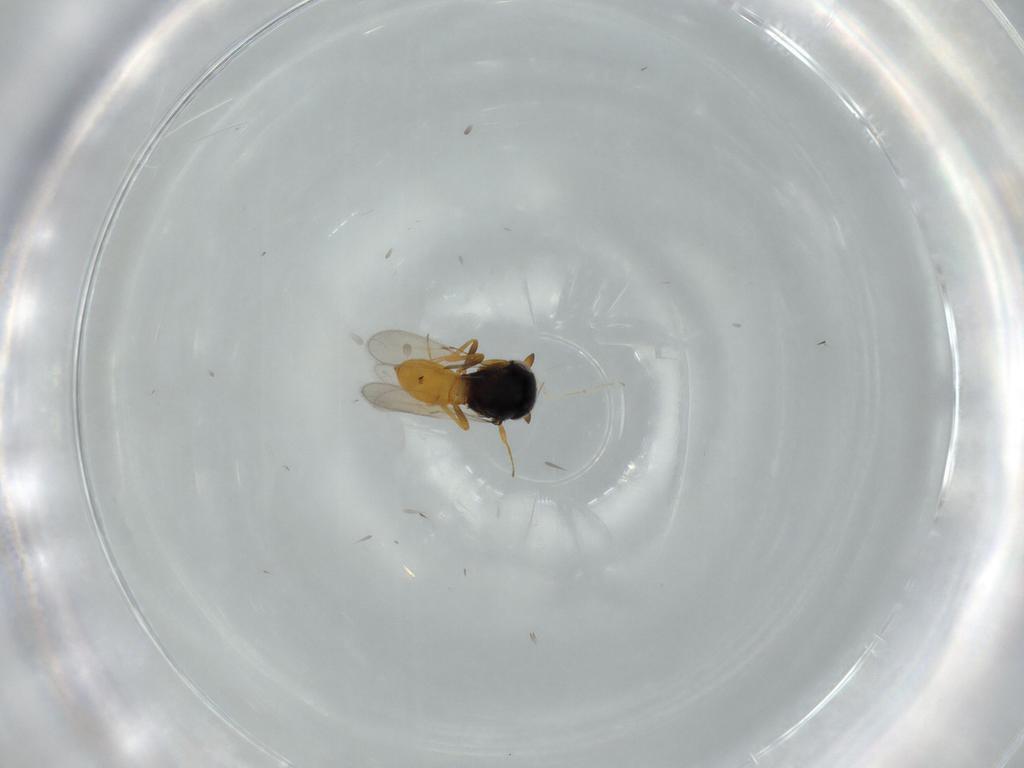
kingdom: Animalia
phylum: Arthropoda
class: Insecta
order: Hymenoptera
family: Scelionidae
